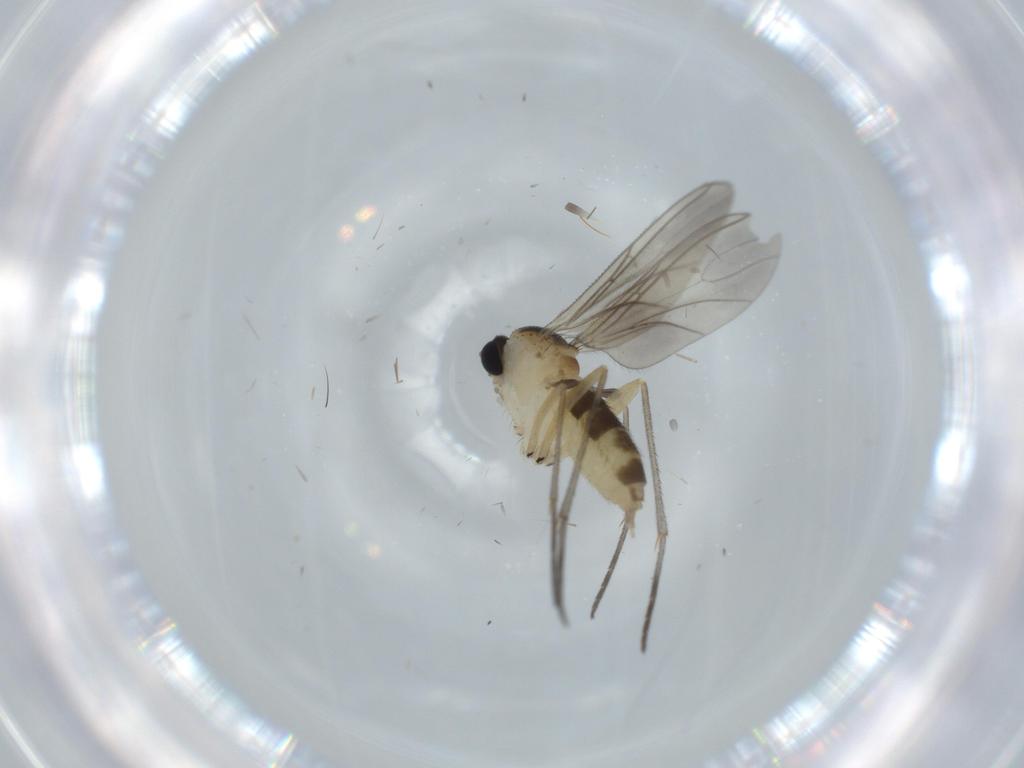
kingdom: Animalia
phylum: Arthropoda
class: Insecta
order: Diptera
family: Sciaridae
